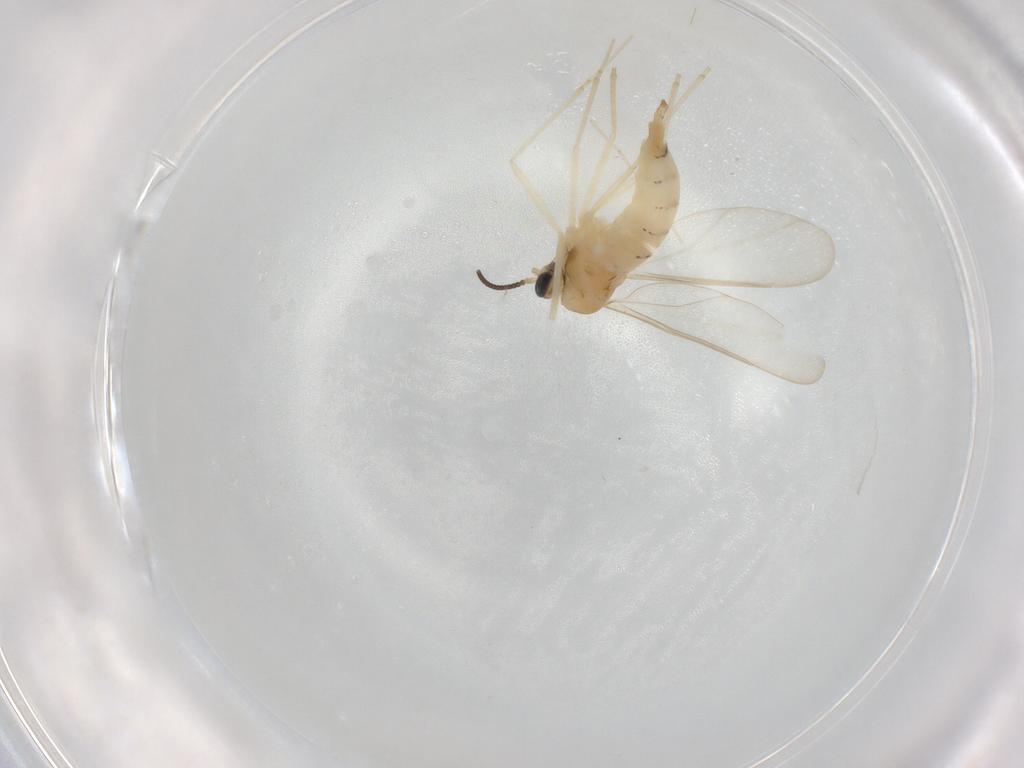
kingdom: Animalia
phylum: Arthropoda
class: Insecta
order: Diptera
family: Cecidomyiidae
